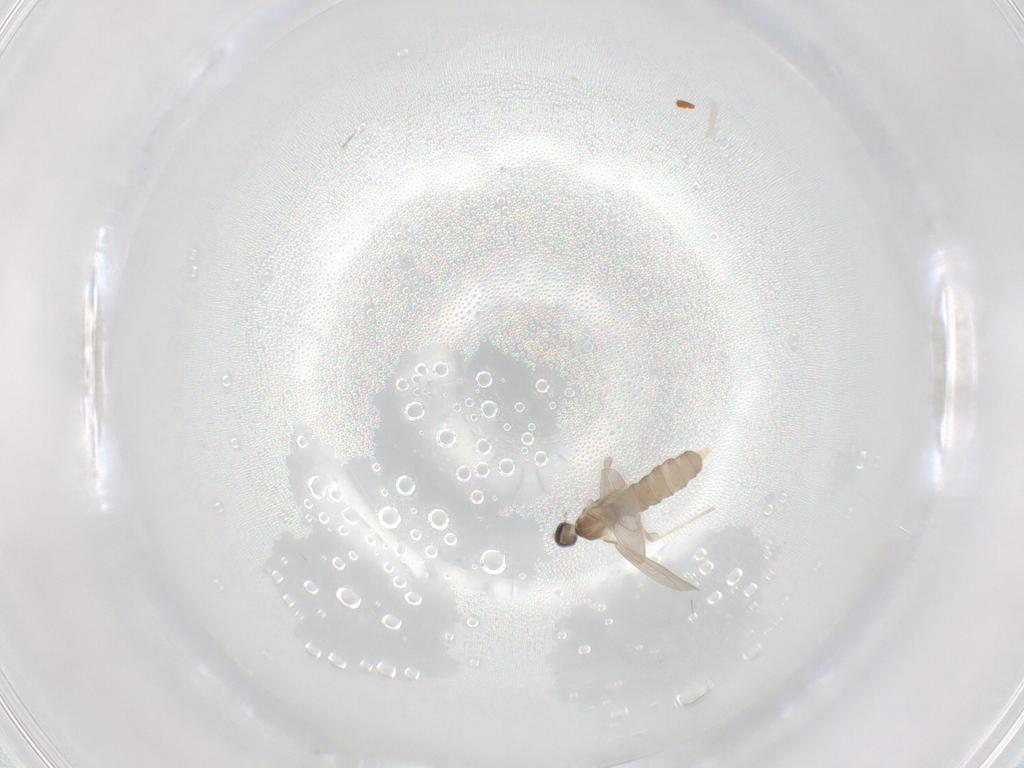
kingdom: Animalia
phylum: Arthropoda
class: Insecta
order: Diptera
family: Cecidomyiidae
